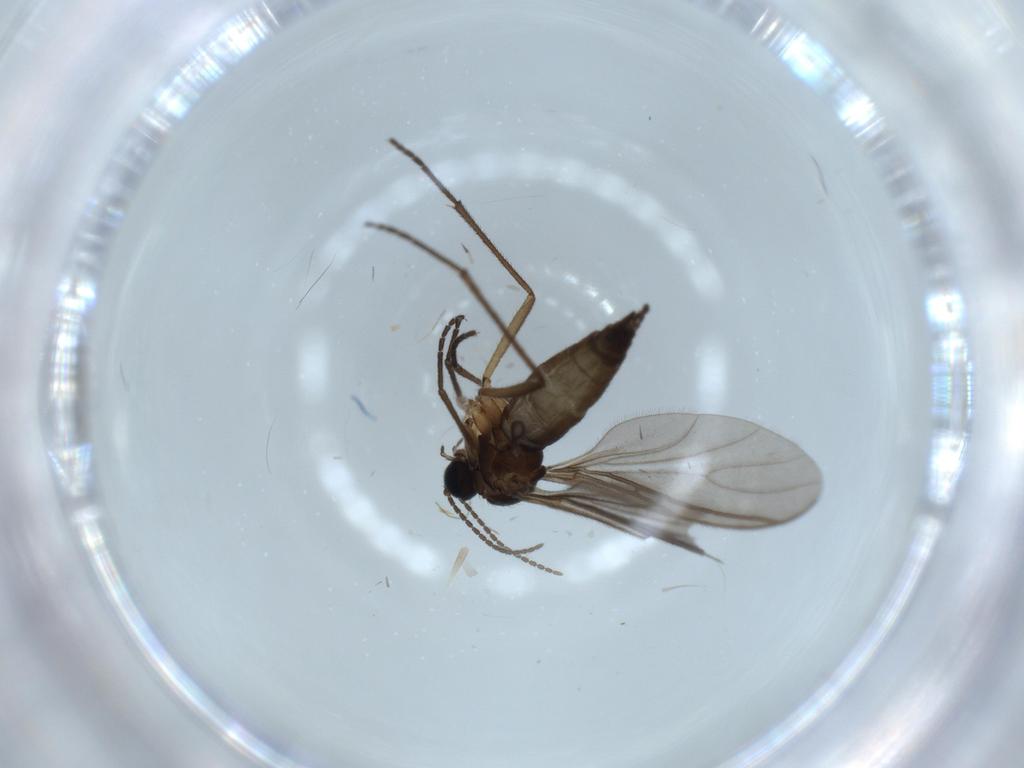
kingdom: Animalia
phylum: Arthropoda
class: Insecta
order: Diptera
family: Sciaridae
